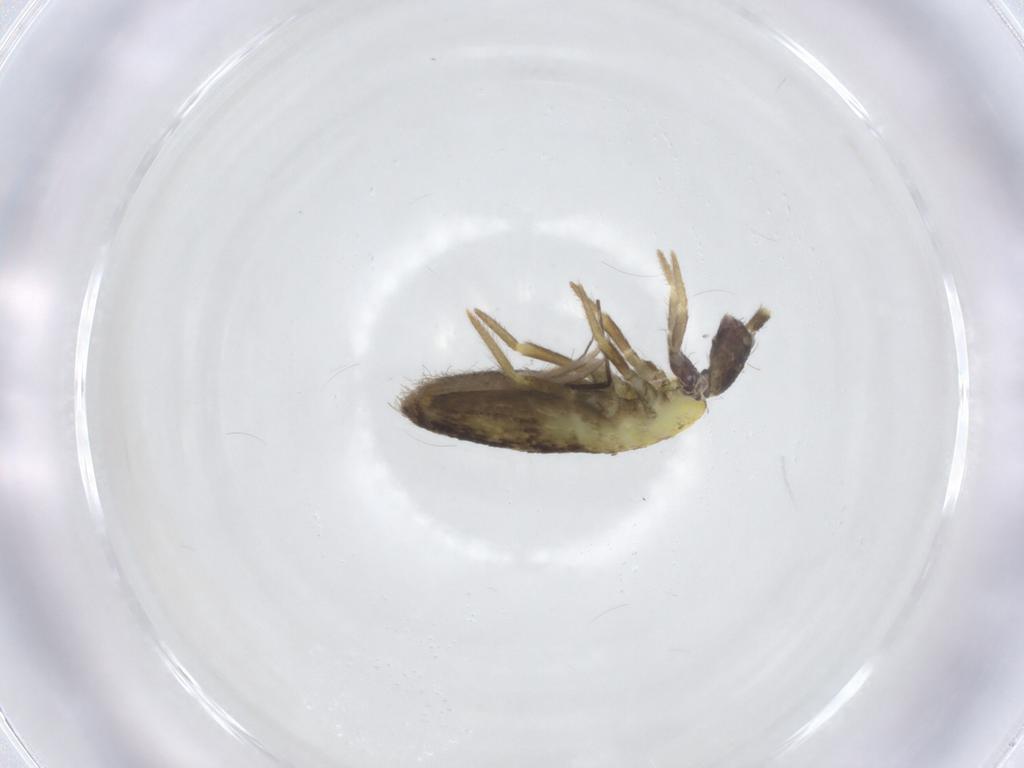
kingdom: Animalia
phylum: Arthropoda
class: Collembola
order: Entomobryomorpha
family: Entomobryidae
